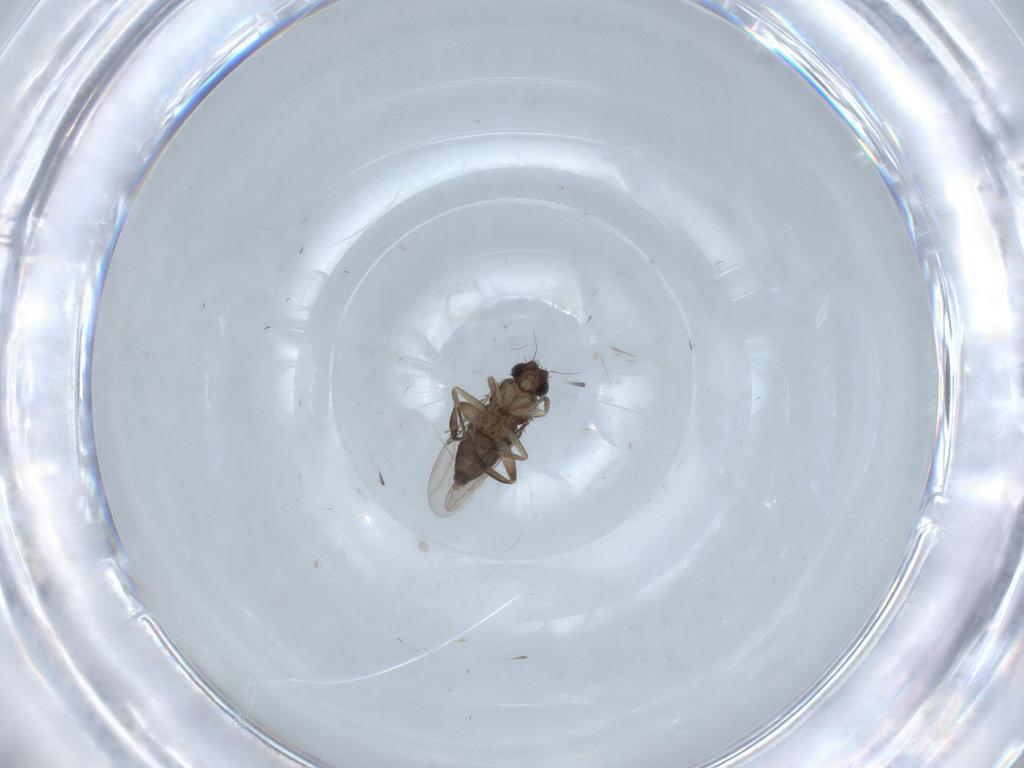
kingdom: Animalia
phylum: Arthropoda
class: Insecta
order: Diptera
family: Phoridae
